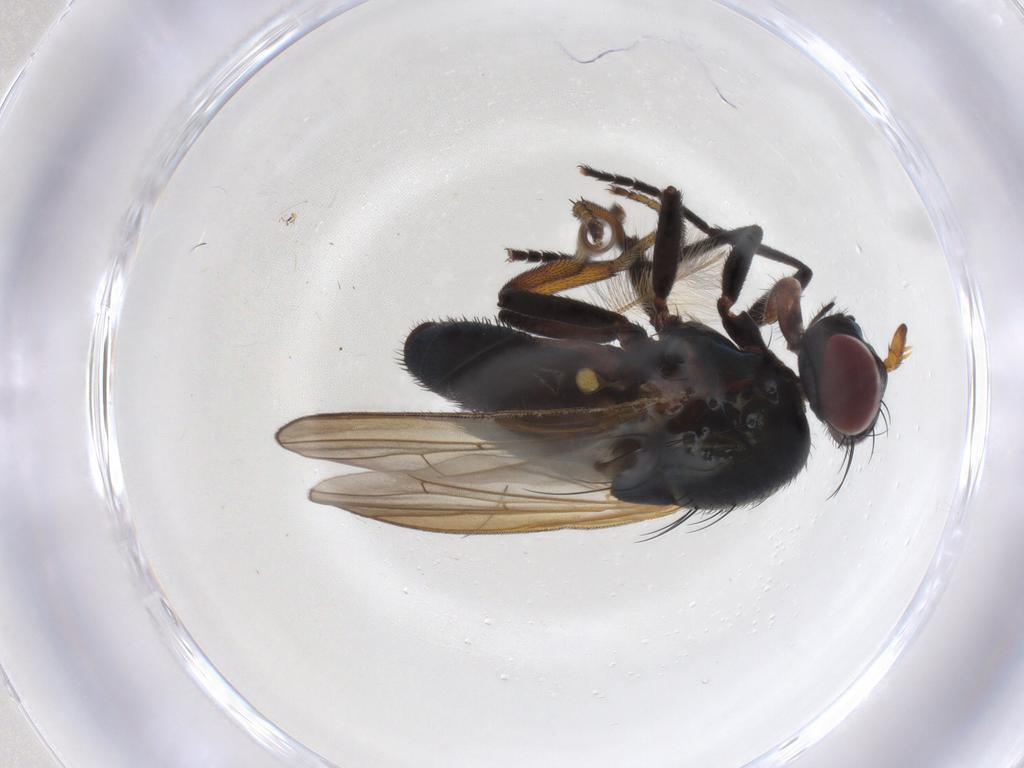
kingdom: Animalia
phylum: Arthropoda
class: Insecta
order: Diptera
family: Lauxaniidae
